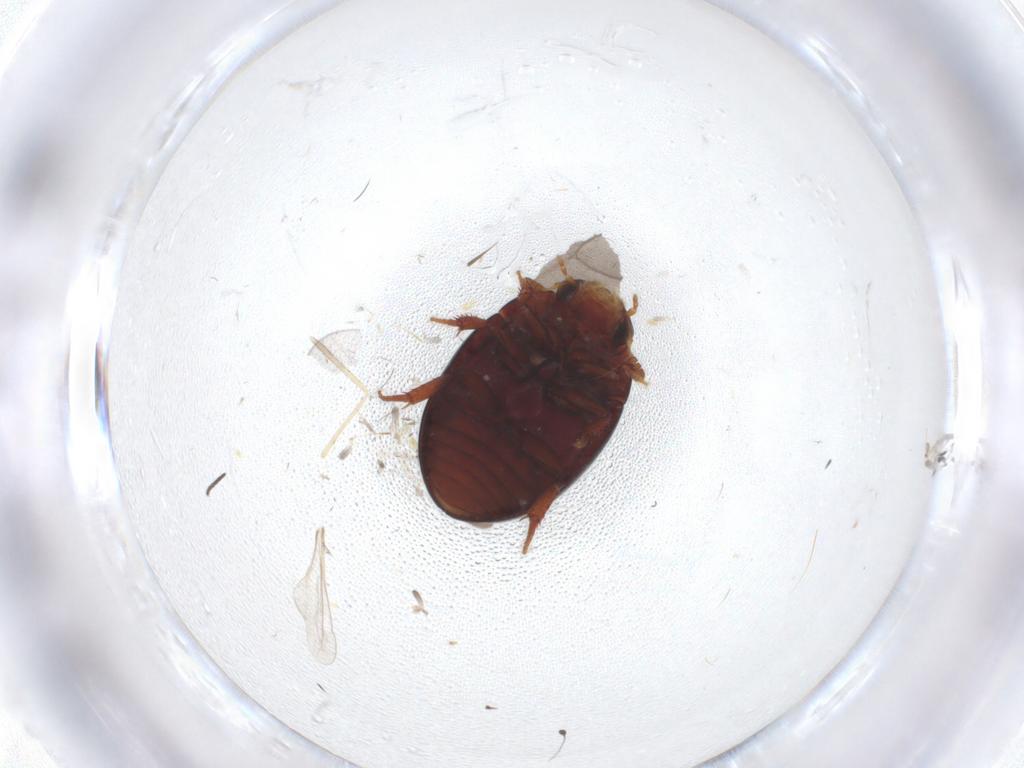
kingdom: Animalia
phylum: Arthropoda
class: Insecta
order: Coleoptera
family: Hydrophilidae
